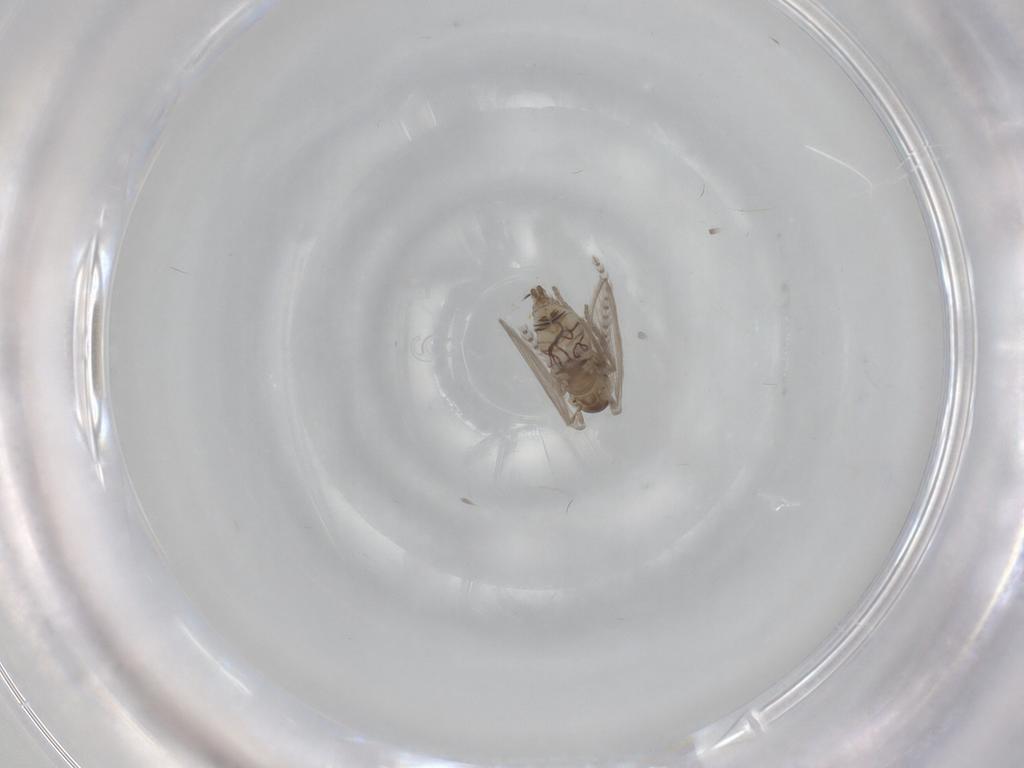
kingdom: Animalia
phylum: Arthropoda
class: Insecta
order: Diptera
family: Psychodidae
